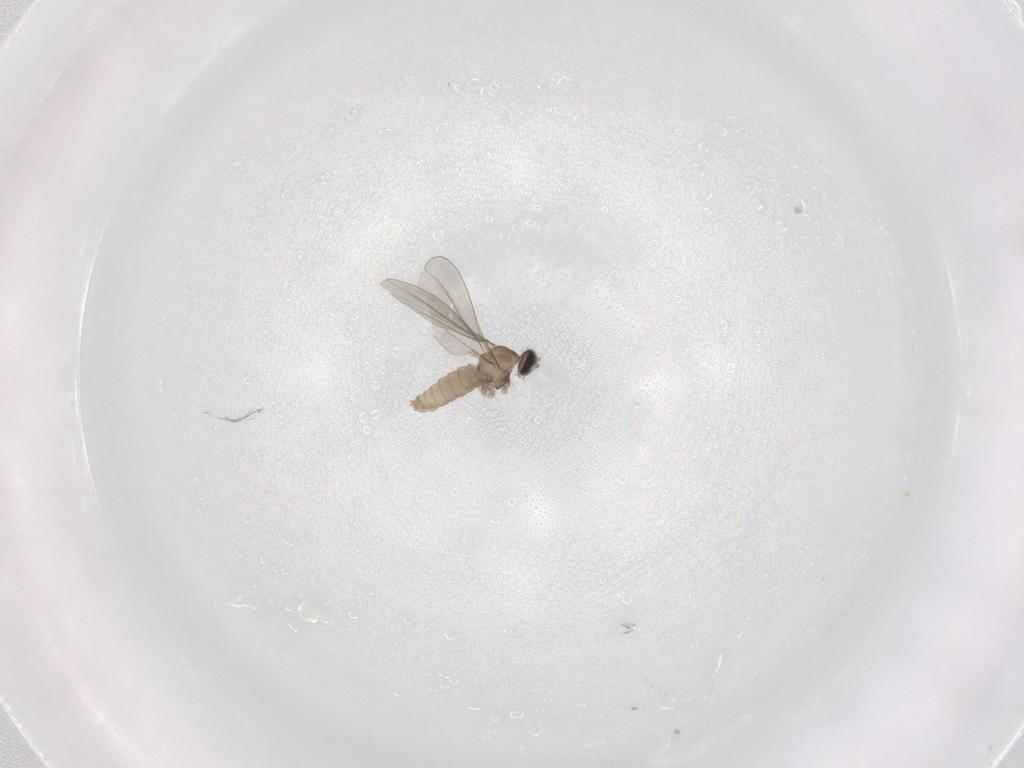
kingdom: Animalia
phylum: Arthropoda
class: Insecta
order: Diptera
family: Cecidomyiidae
